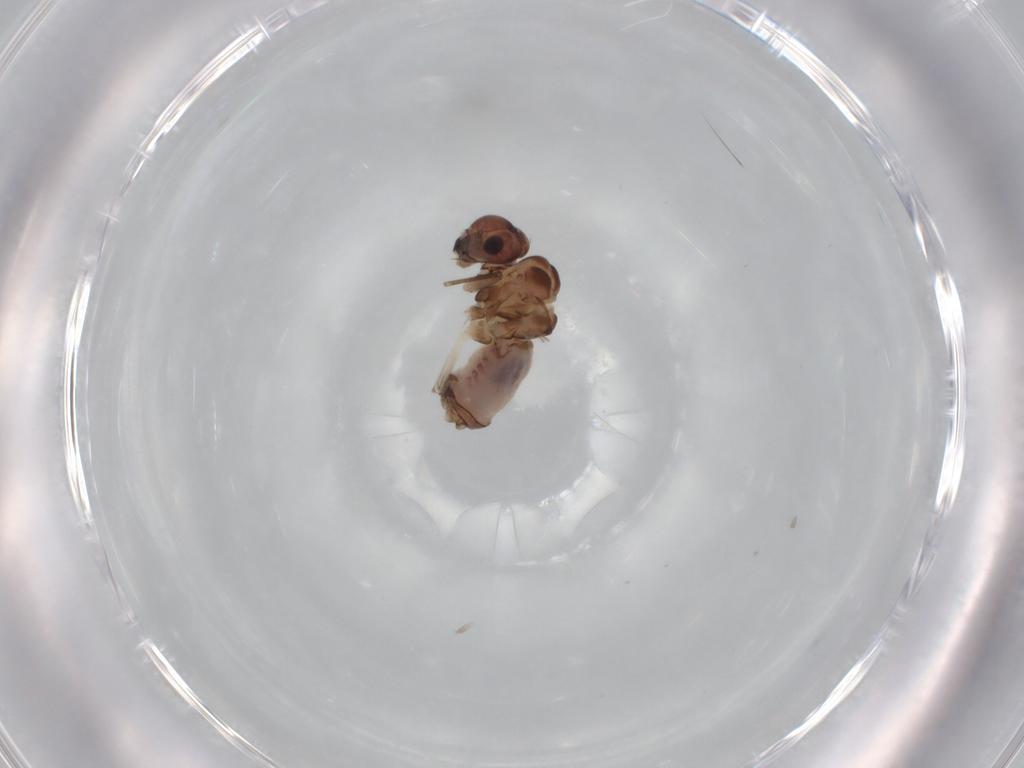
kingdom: Animalia
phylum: Arthropoda
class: Insecta
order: Psocodea
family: Peripsocidae
